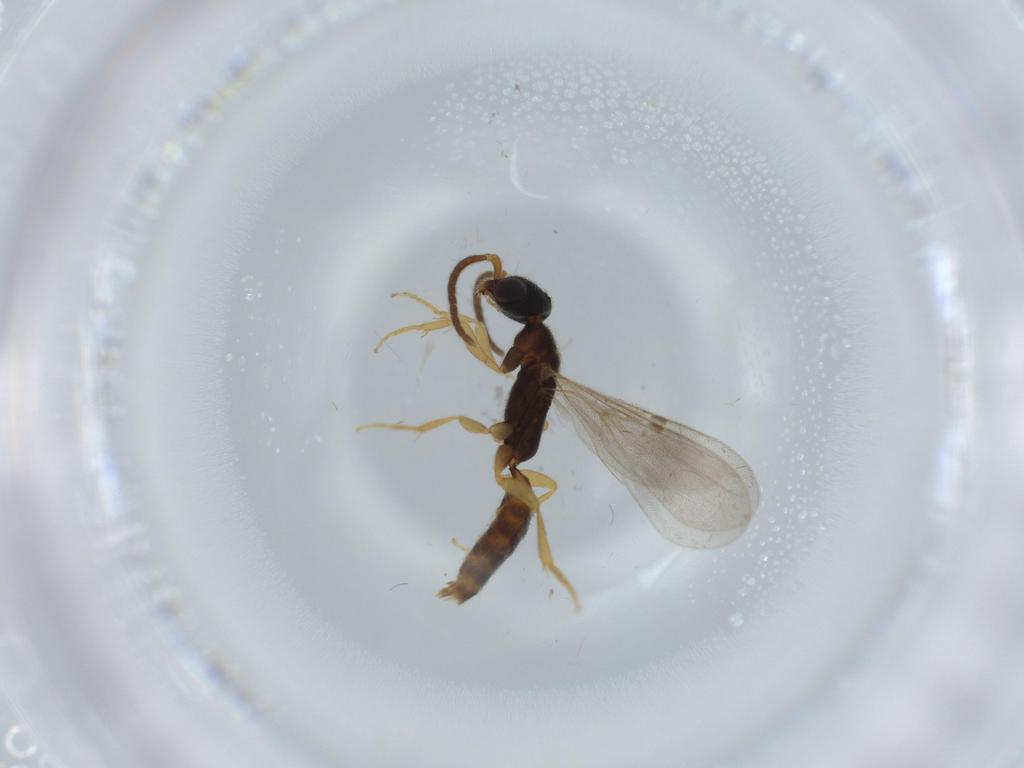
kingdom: Animalia
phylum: Arthropoda
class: Insecta
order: Hymenoptera
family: Bethylidae
